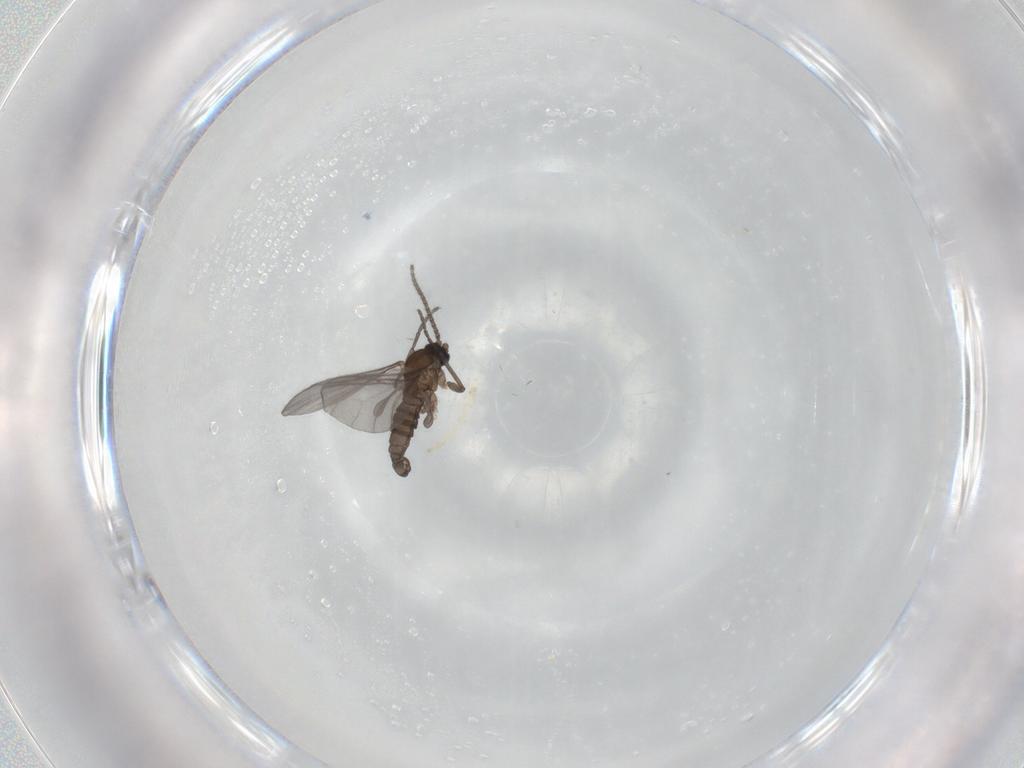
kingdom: Animalia
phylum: Arthropoda
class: Insecta
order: Diptera
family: Sciaridae
